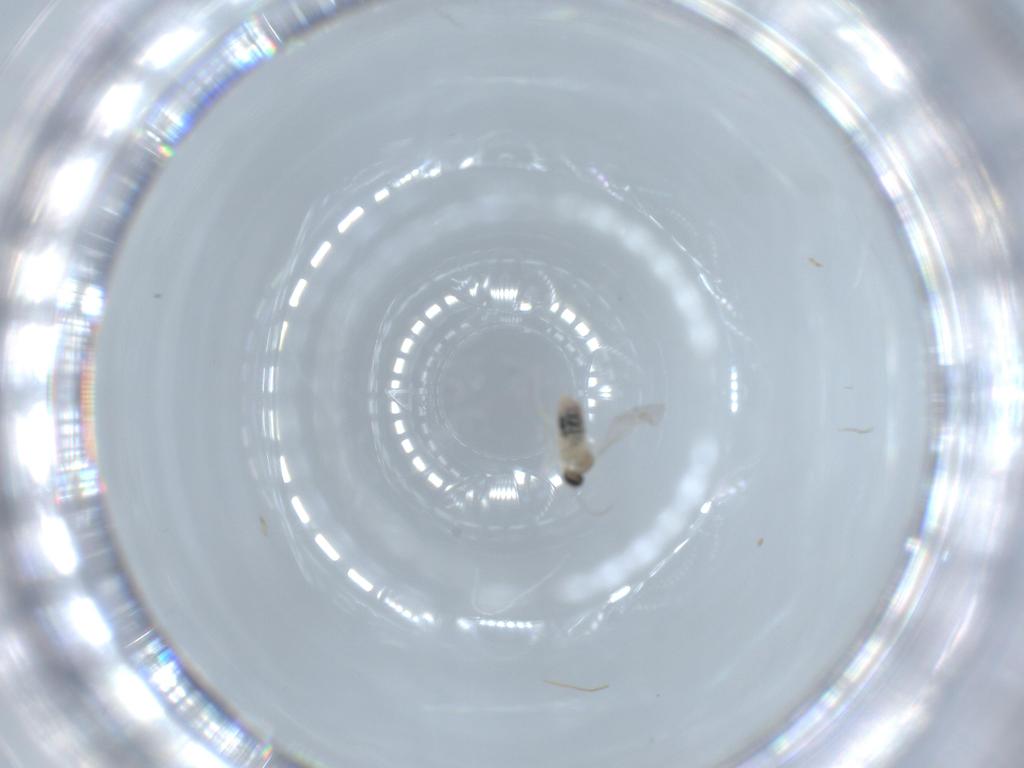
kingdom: Animalia
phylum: Arthropoda
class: Insecta
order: Diptera
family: Cecidomyiidae
